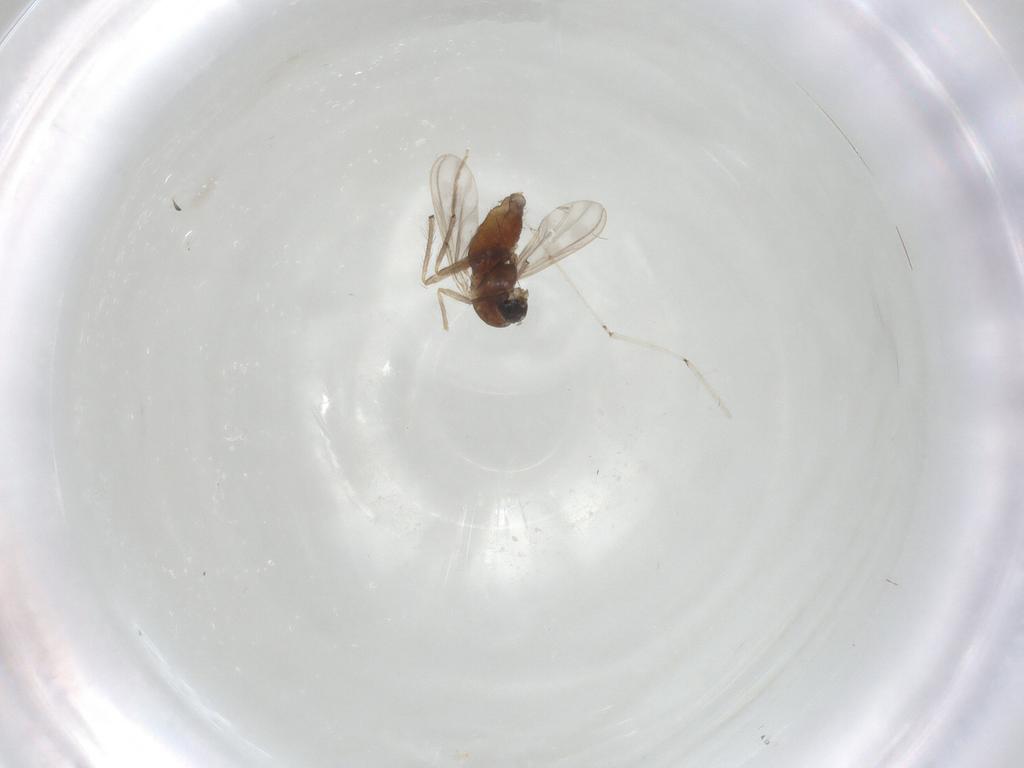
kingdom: Animalia
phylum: Arthropoda
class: Insecta
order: Diptera
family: Chironomidae
